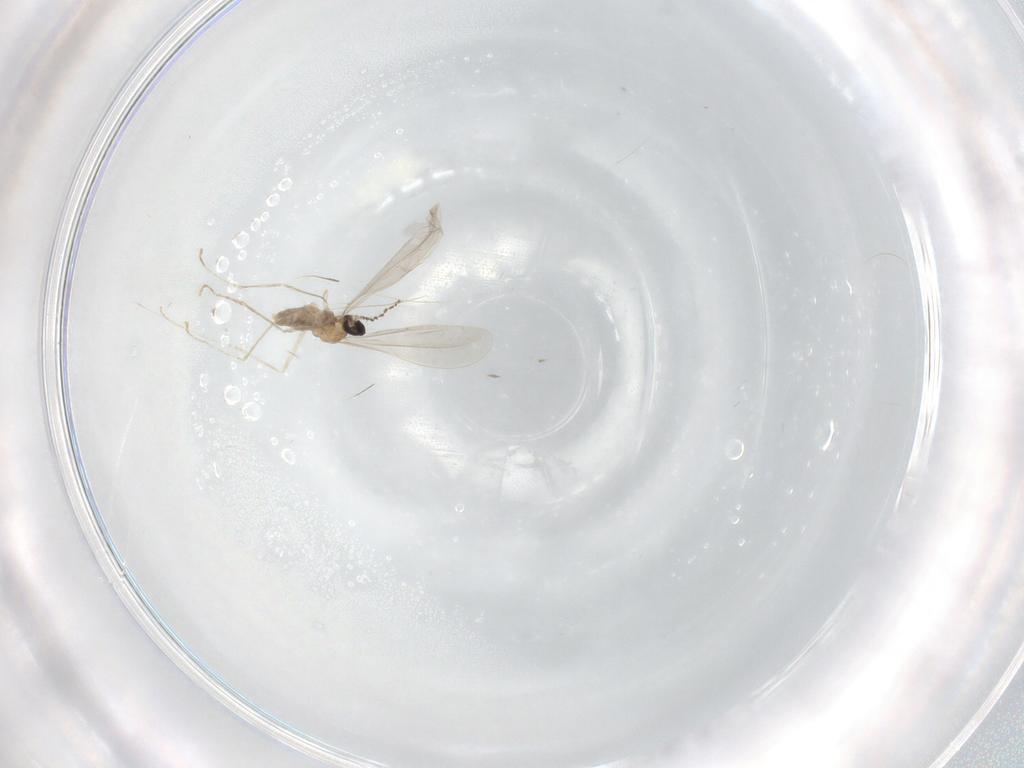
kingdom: Animalia
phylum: Arthropoda
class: Insecta
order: Diptera
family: Cecidomyiidae
